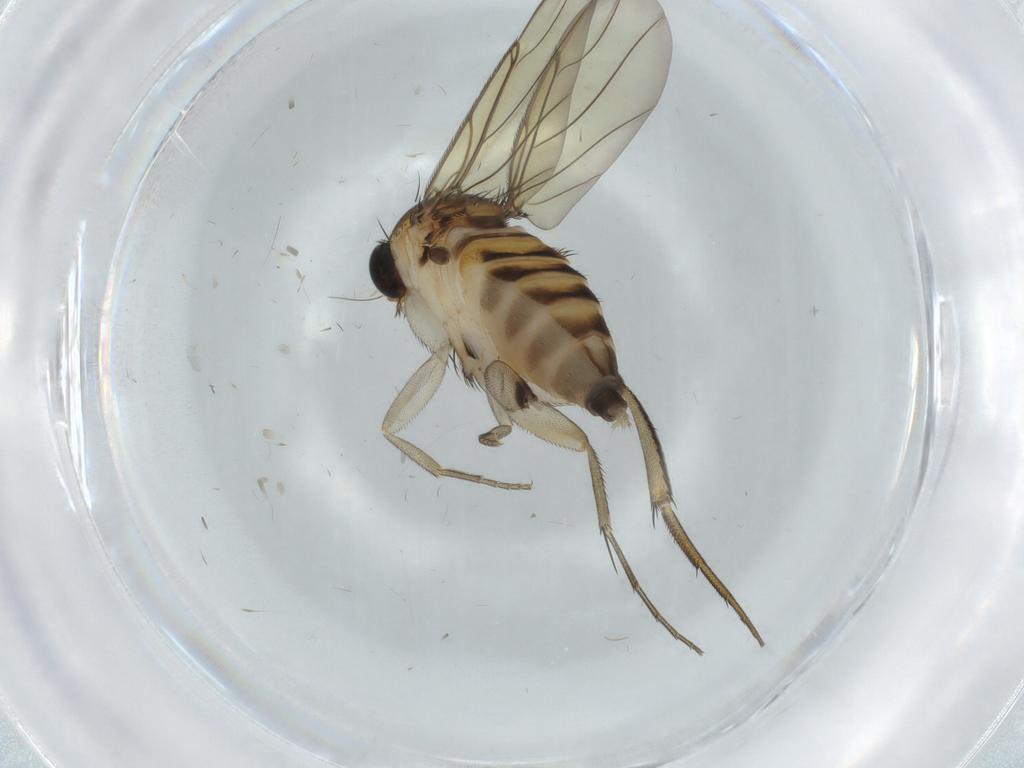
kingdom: Animalia
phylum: Arthropoda
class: Insecta
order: Diptera
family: Phoridae
